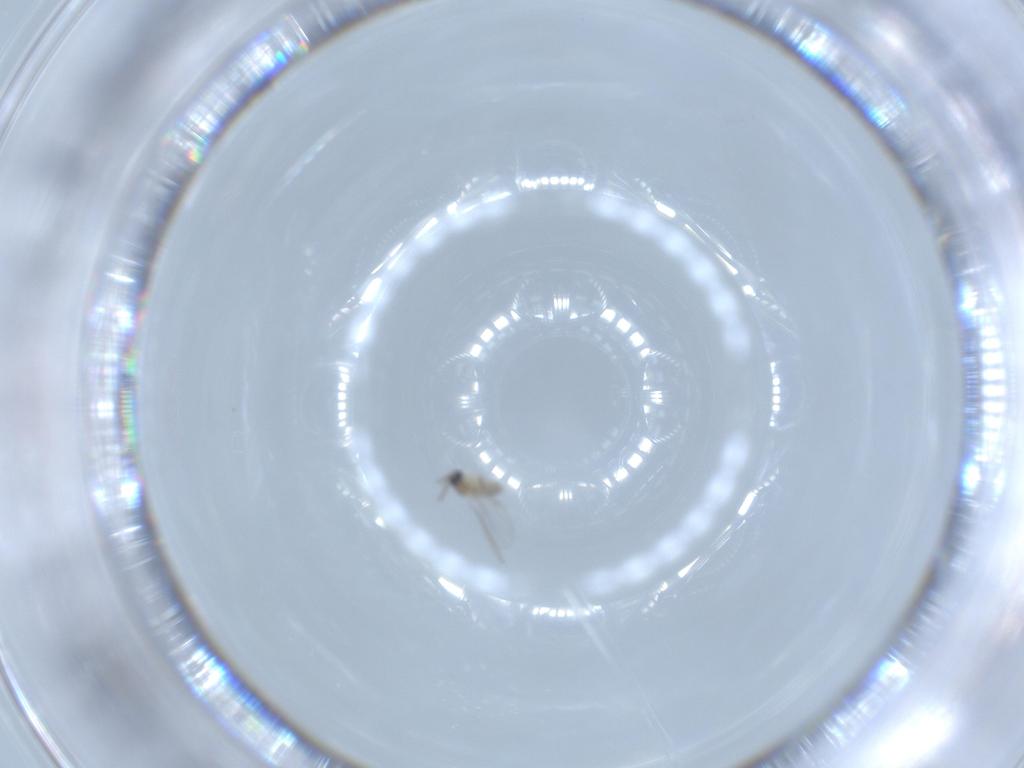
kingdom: Animalia
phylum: Arthropoda
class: Insecta
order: Diptera
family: Cecidomyiidae
